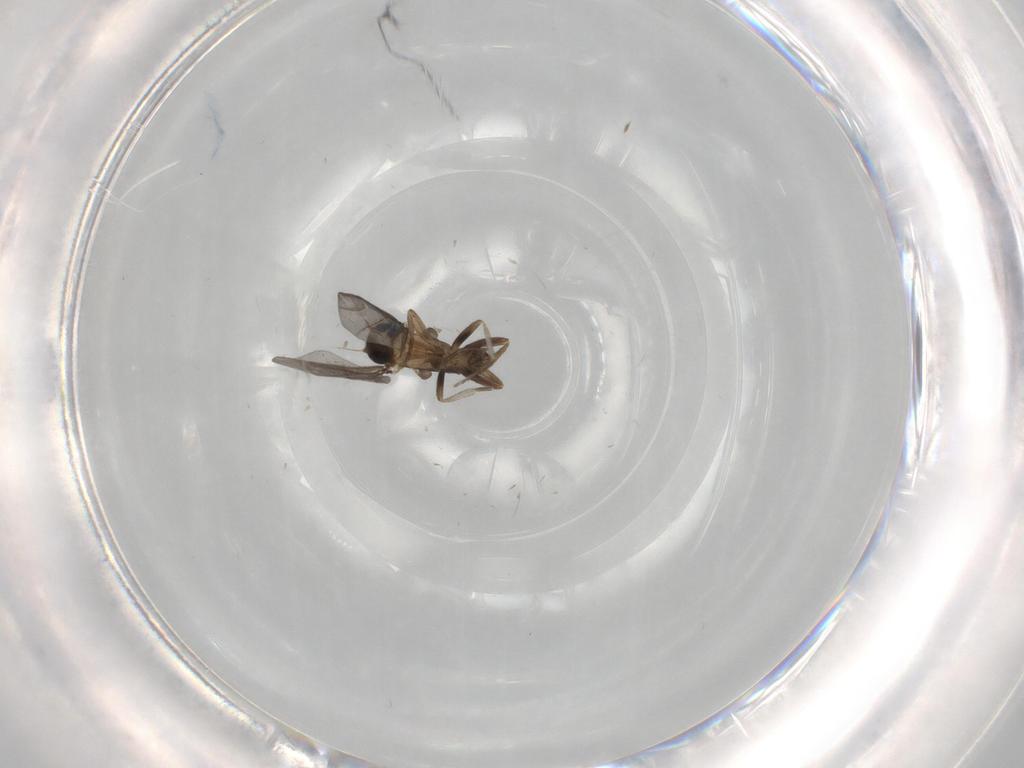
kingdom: Animalia
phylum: Arthropoda
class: Insecta
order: Diptera
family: Phoridae
